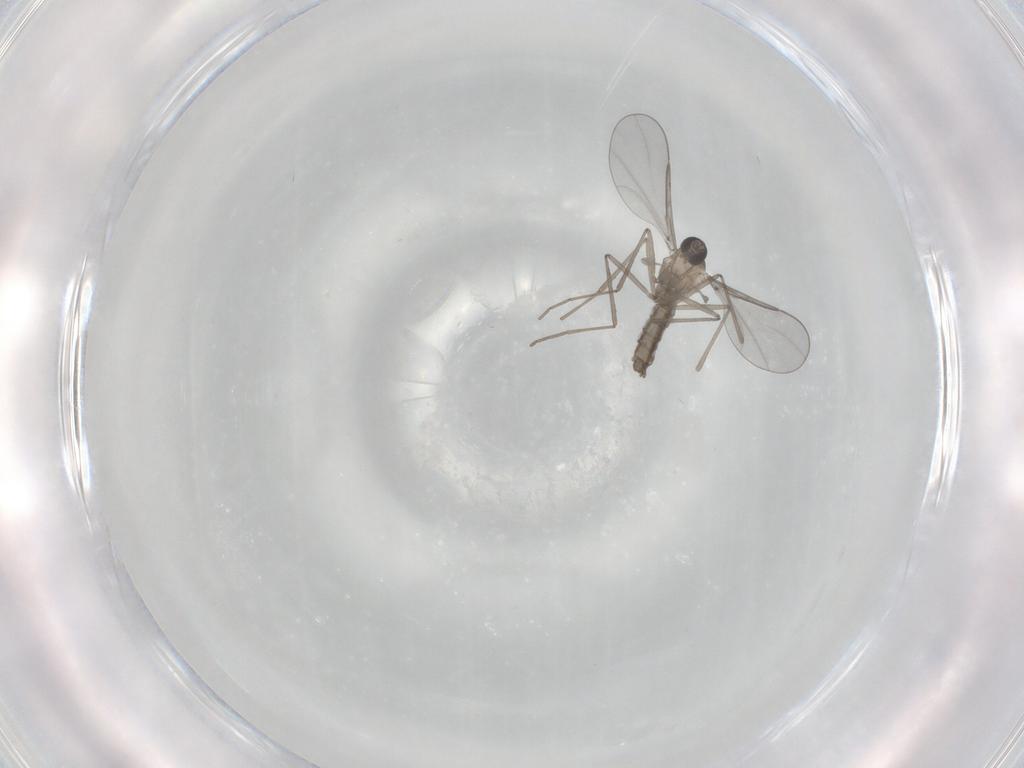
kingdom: Animalia
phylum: Arthropoda
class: Insecta
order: Diptera
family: Cecidomyiidae
